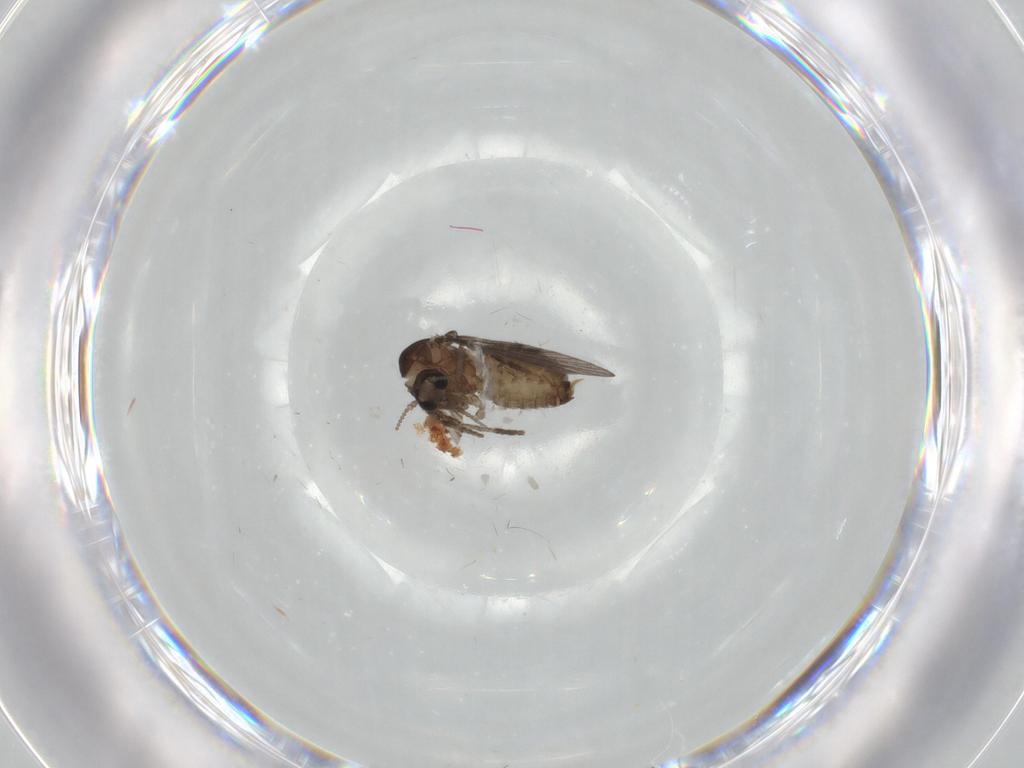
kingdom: Animalia
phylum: Arthropoda
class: Insecta
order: Diptera
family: Psychodidae
